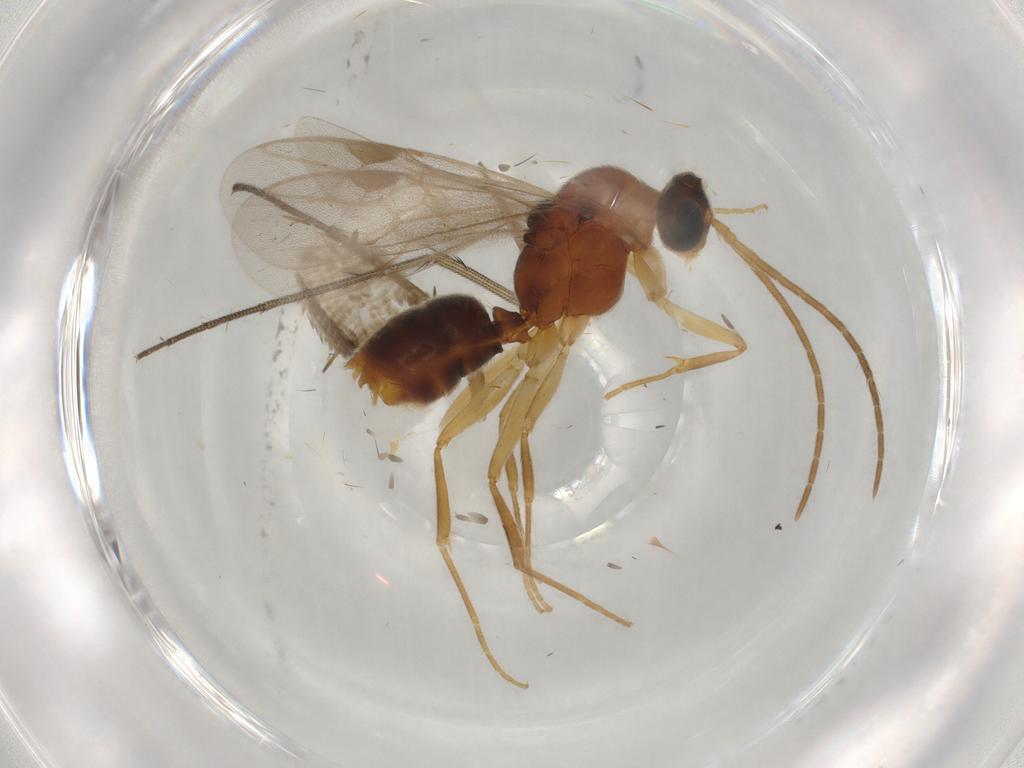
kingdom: Animalia
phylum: Arthropoda
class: Insecta
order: Hymenoptera
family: Formicidae
